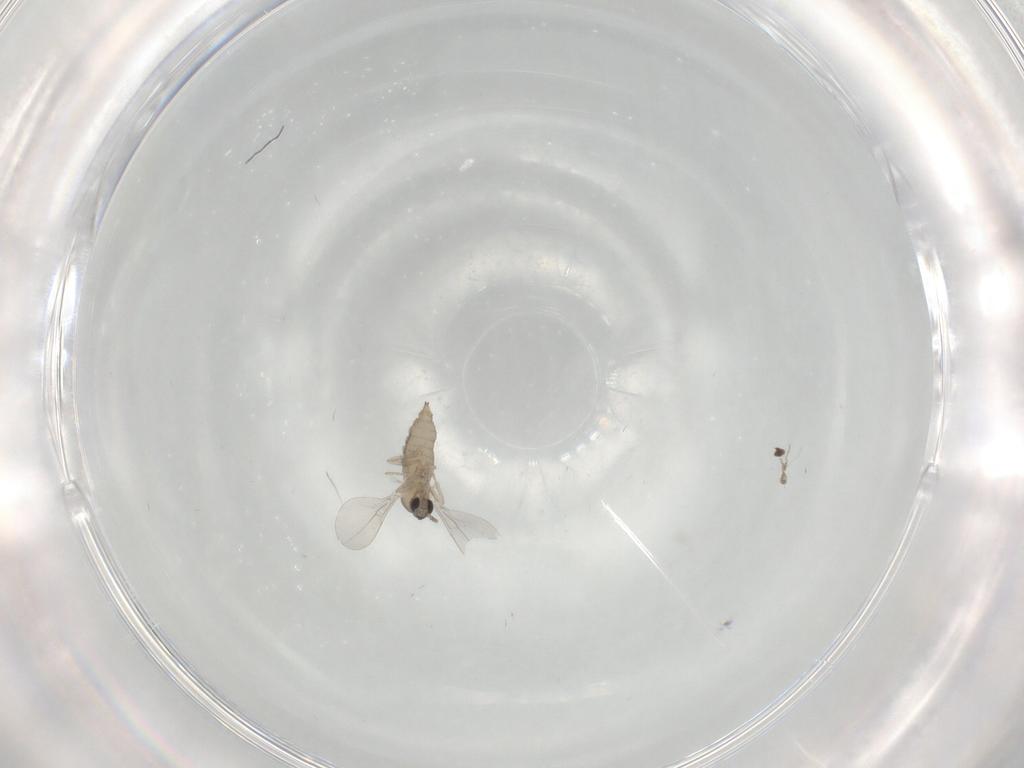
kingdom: Animalia
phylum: Arthropoda
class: Insecta
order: Diptera
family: Cecidomyiidae
